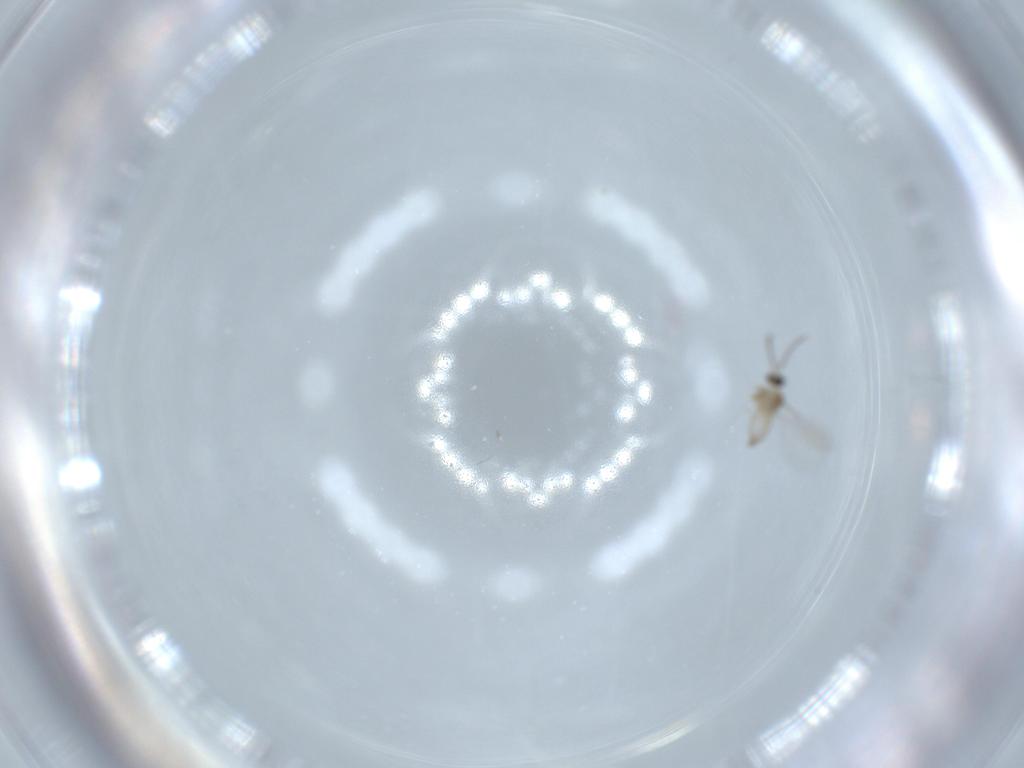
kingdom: Animalia
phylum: Arthropoda
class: Insecta
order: Diptera
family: Cecidomyiidae
